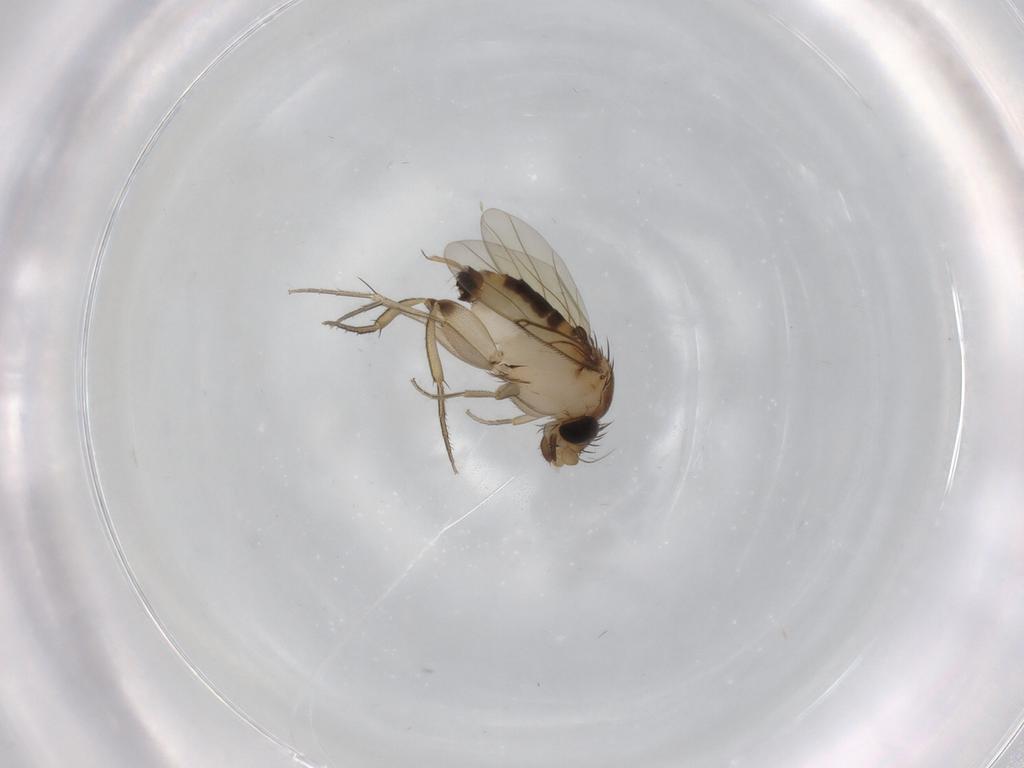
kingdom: Animalia
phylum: Arthropoda
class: Insecta
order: Diptera
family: Phoridae
